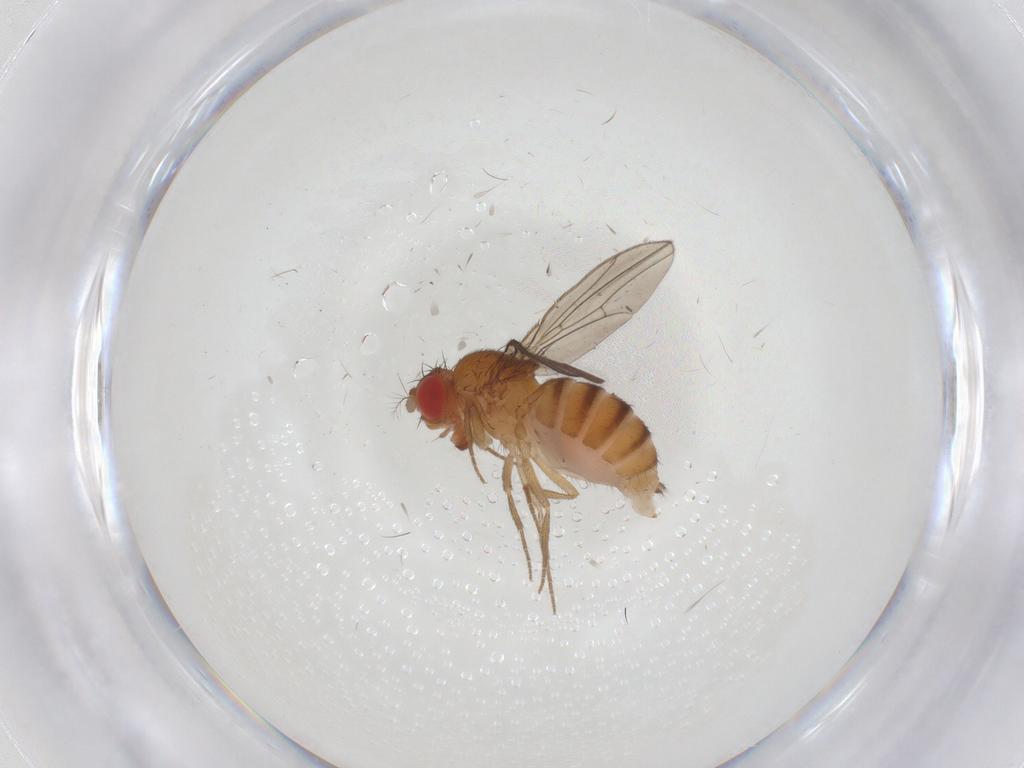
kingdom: Animalia
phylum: Arthropoda
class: Insecta
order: Diptera
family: Drosophilidae
